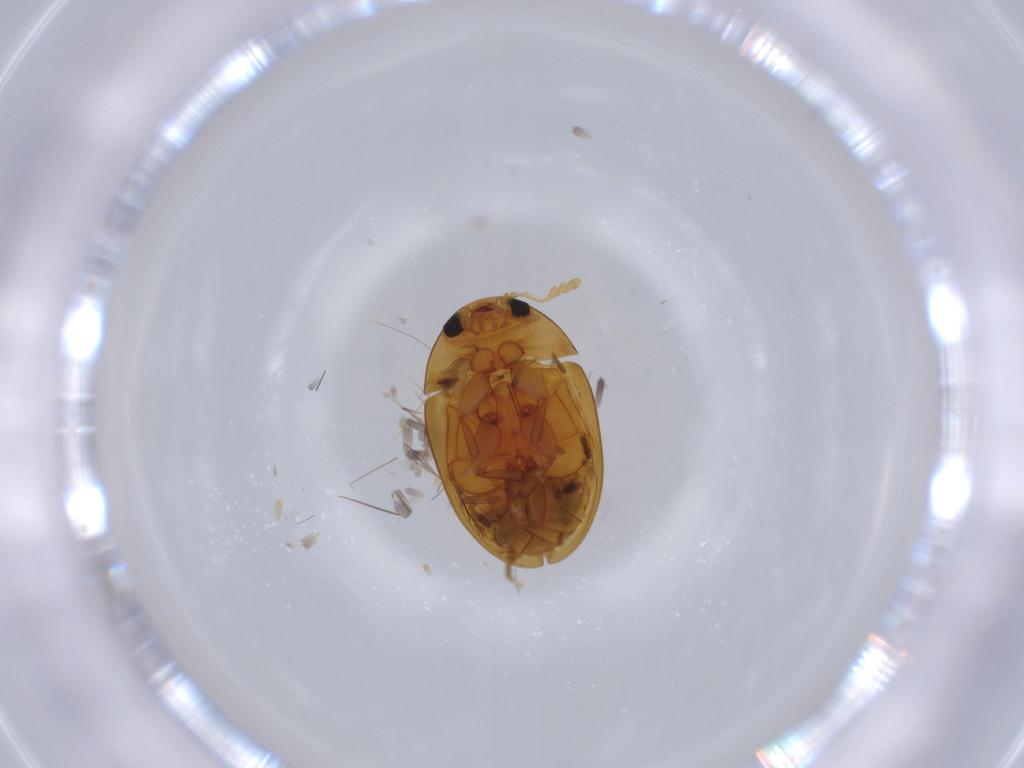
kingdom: Animalia
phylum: Arthropoda
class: Insecta
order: Coleoptera
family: Phalacridae
